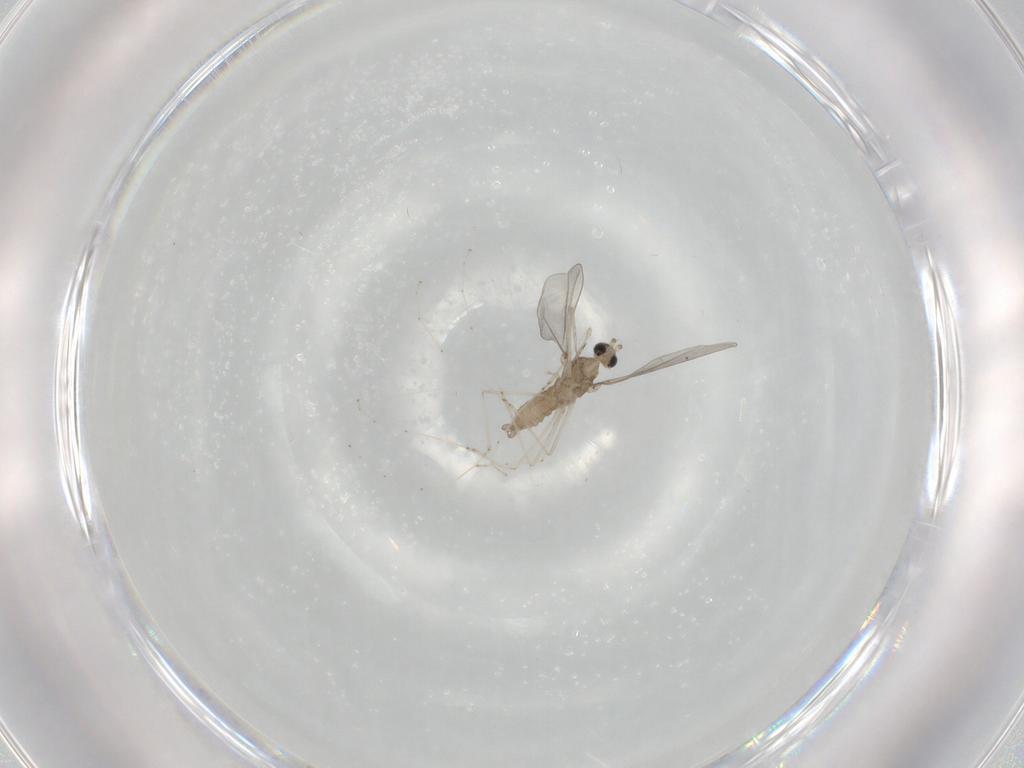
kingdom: Animalia
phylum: Arthropoda
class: Insecta
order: Diptera
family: Cecidomyiidae
